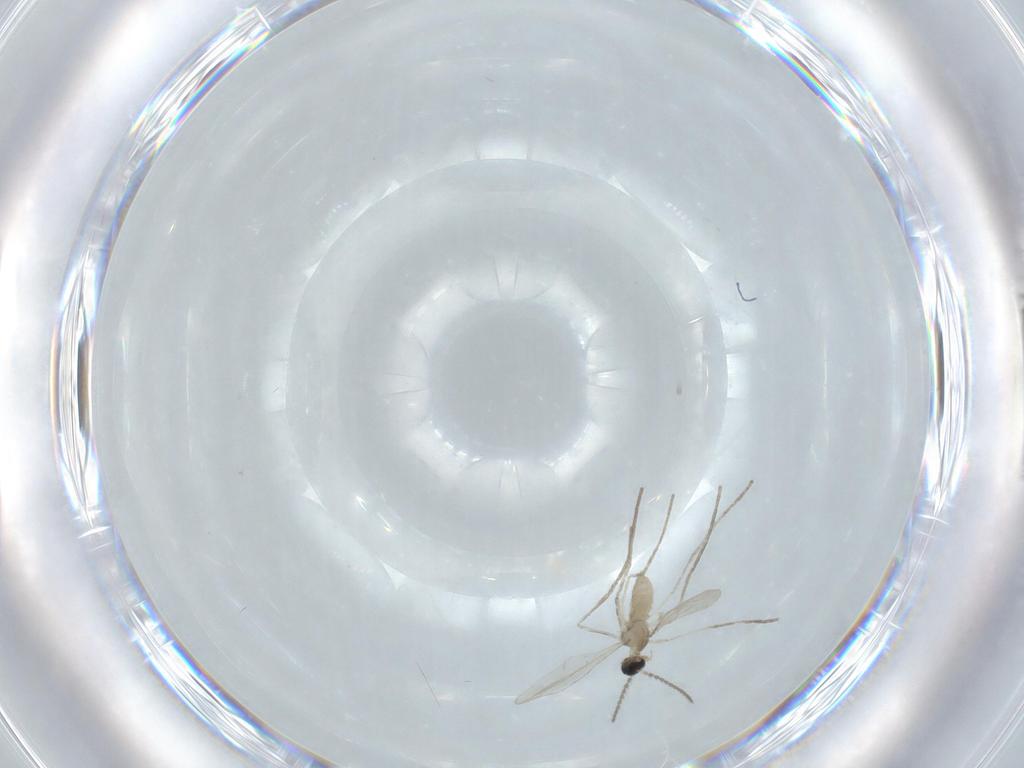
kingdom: Animalia
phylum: Arthropoda
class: Insecta
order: Diptera
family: Cecidomyiidae
